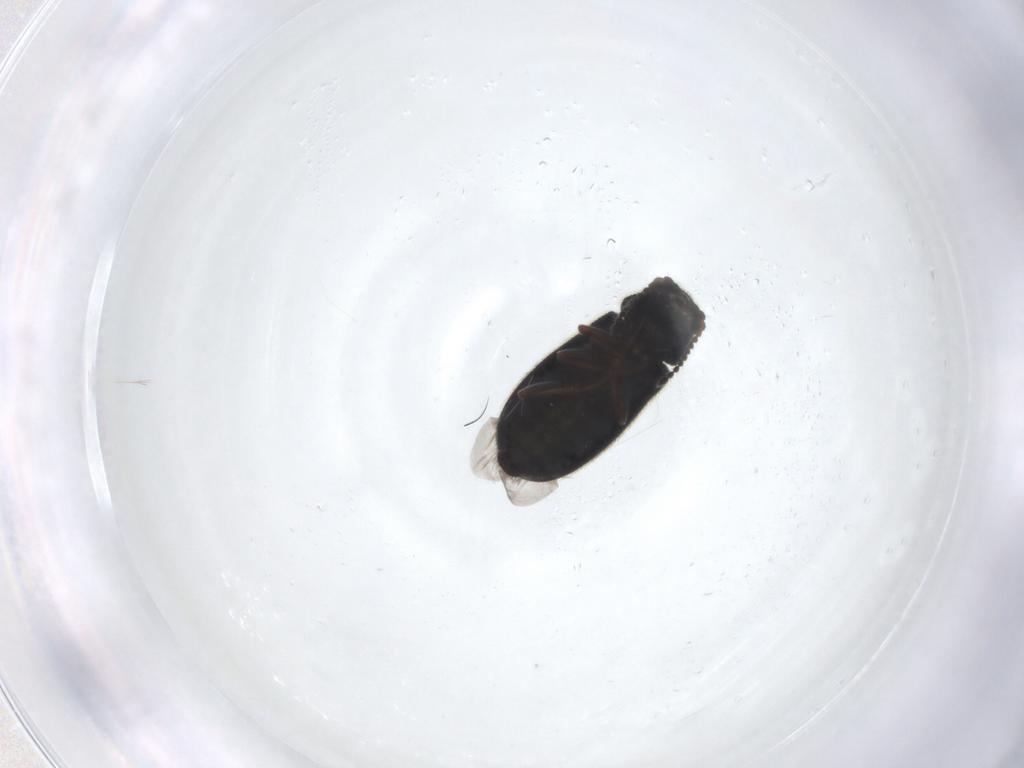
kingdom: Animalia
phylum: Arthropoda
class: Insecta
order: Coleoptera
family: Melyridae
